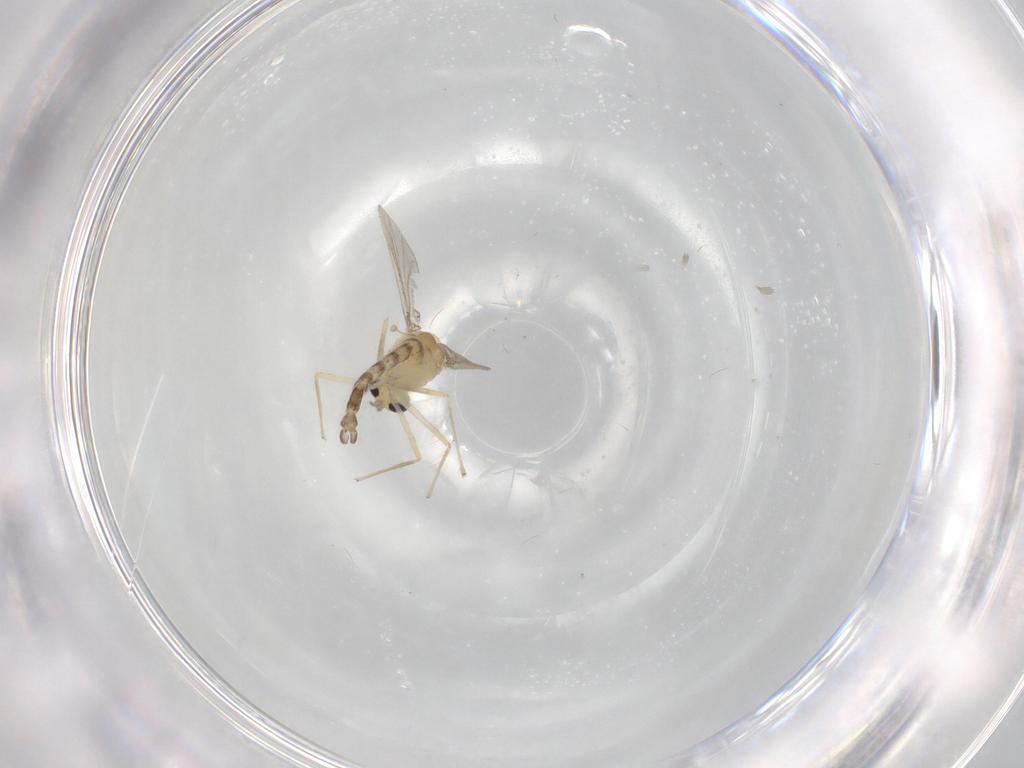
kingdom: Animalia
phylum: Arthropoda
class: Insecta
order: Diptera
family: Chironomidae
